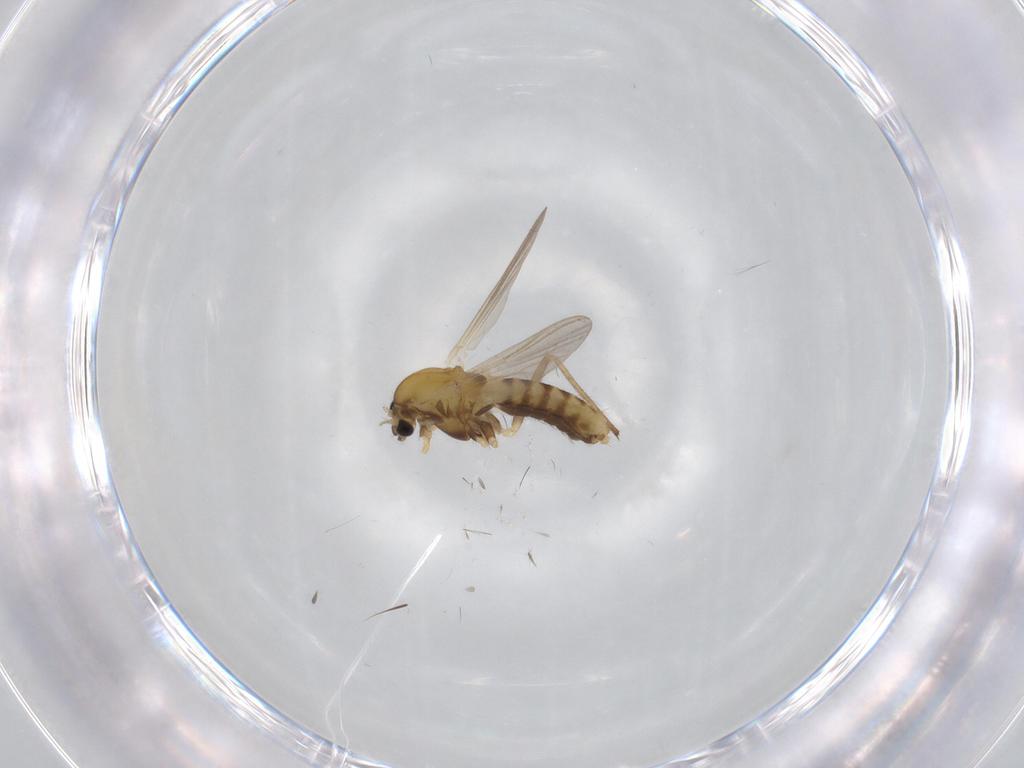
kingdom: Animalia
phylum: Arthropoda
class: Insecta
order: Diptera
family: Chironomidae
